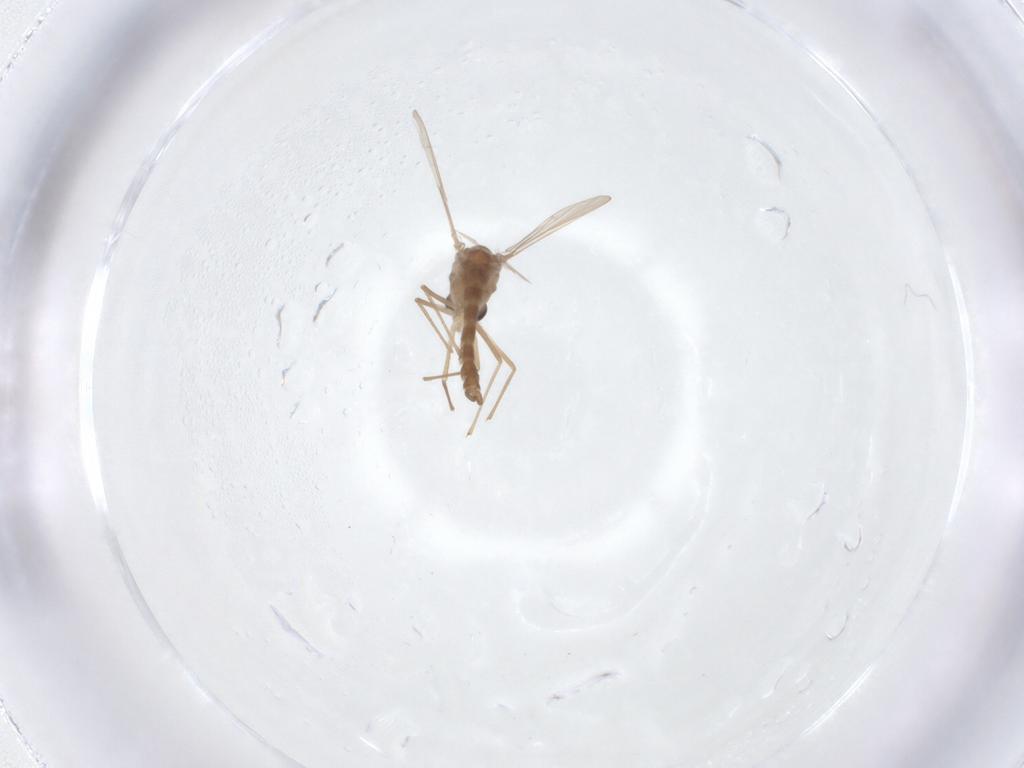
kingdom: Animalia
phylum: Arthropoda
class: Insecta
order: Diptera
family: Chironomidae
